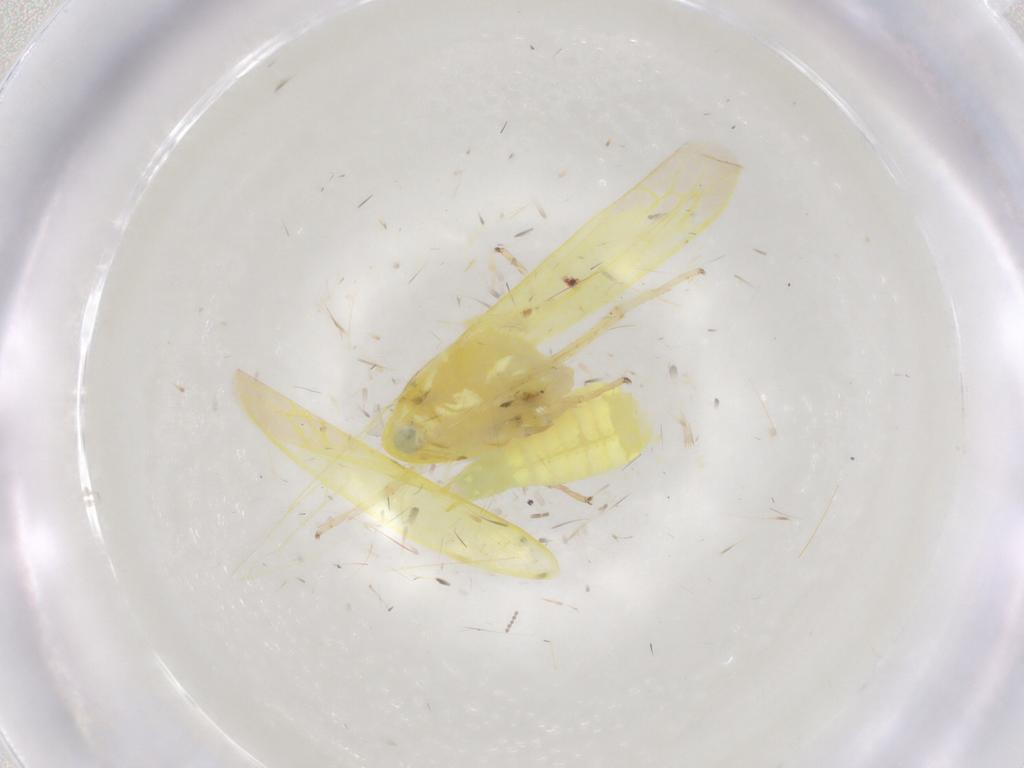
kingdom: Animalia
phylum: Arthropoda
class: Insecta
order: Hemiptera
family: Cicadellidae
